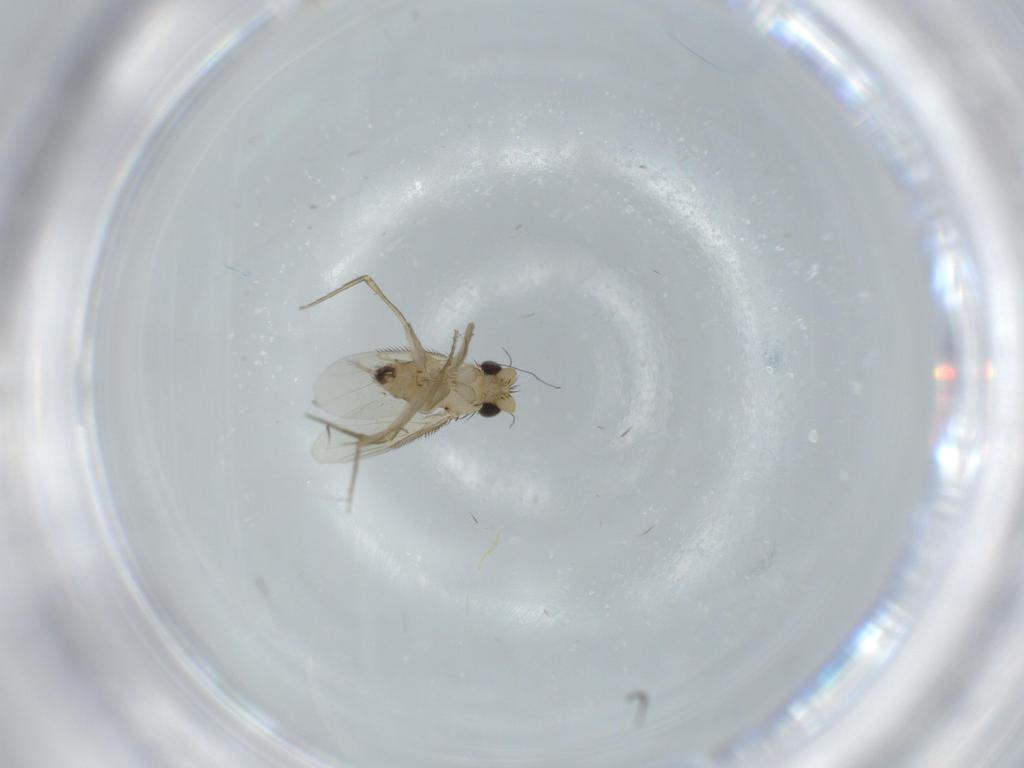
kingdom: Animalia
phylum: Arthropoda
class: Insecta
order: Diptera
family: Phoridae
